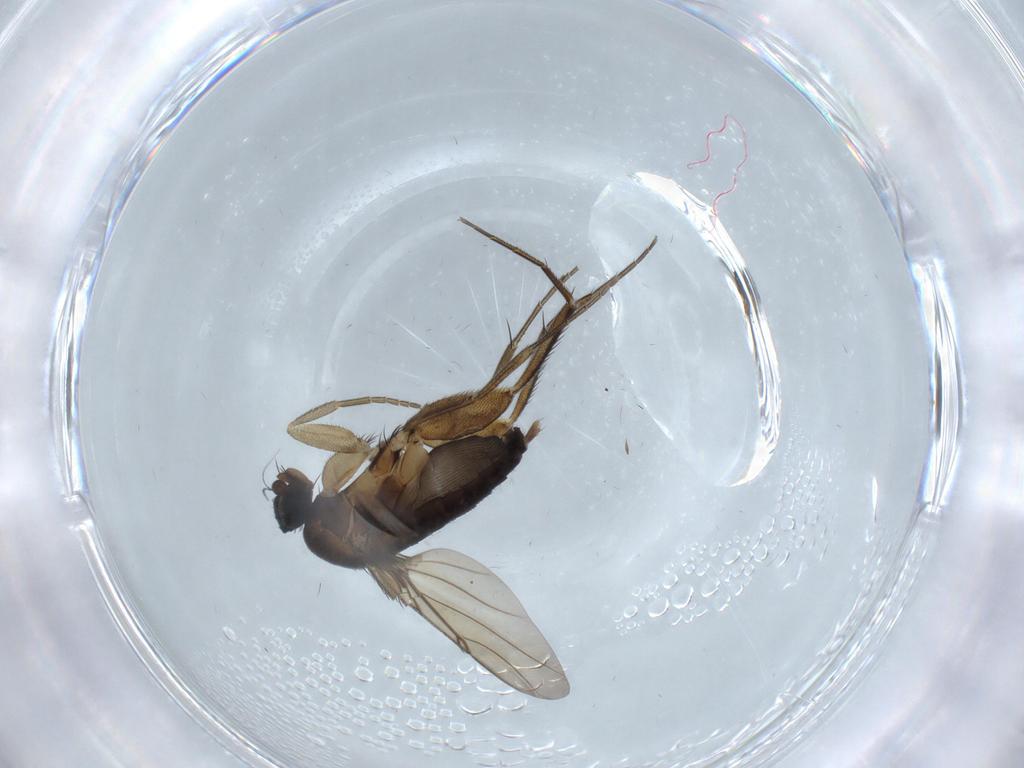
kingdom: Animalia
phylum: Arthropoda
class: Insecta
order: Diptera
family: Phoridae
